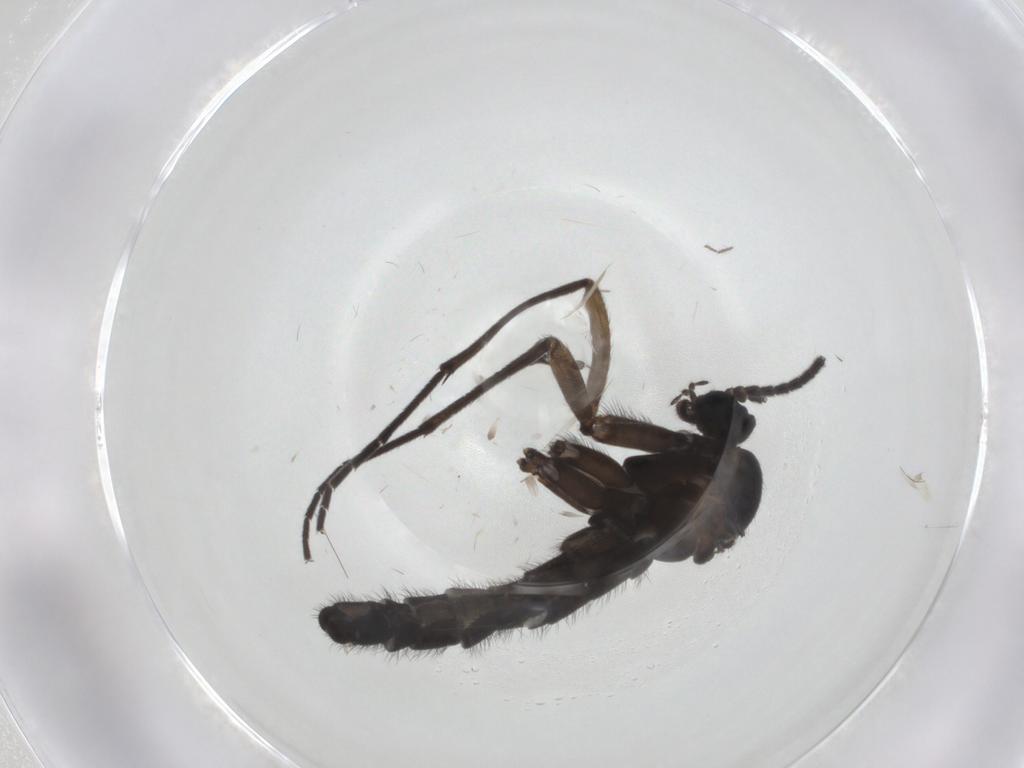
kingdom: Animalia
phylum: Arthropoda
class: Insecta
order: Diptera
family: Sciaridae
